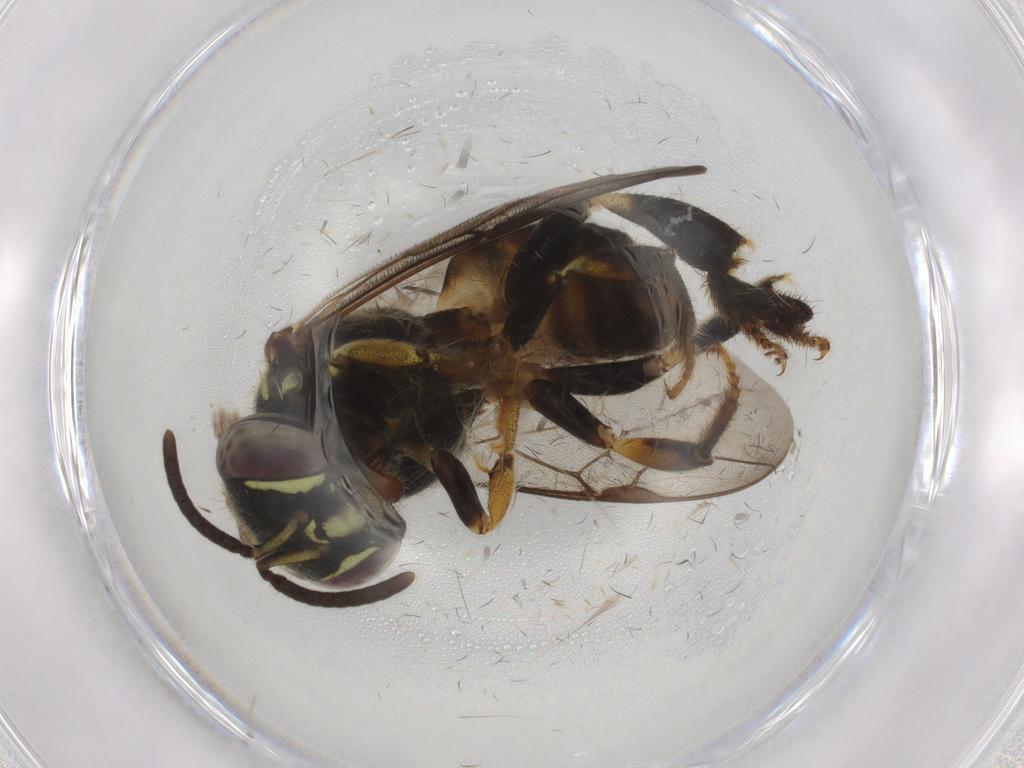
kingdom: Animalia
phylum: Arthropoda
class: Insecta
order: Hymenoptera
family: Apidae
